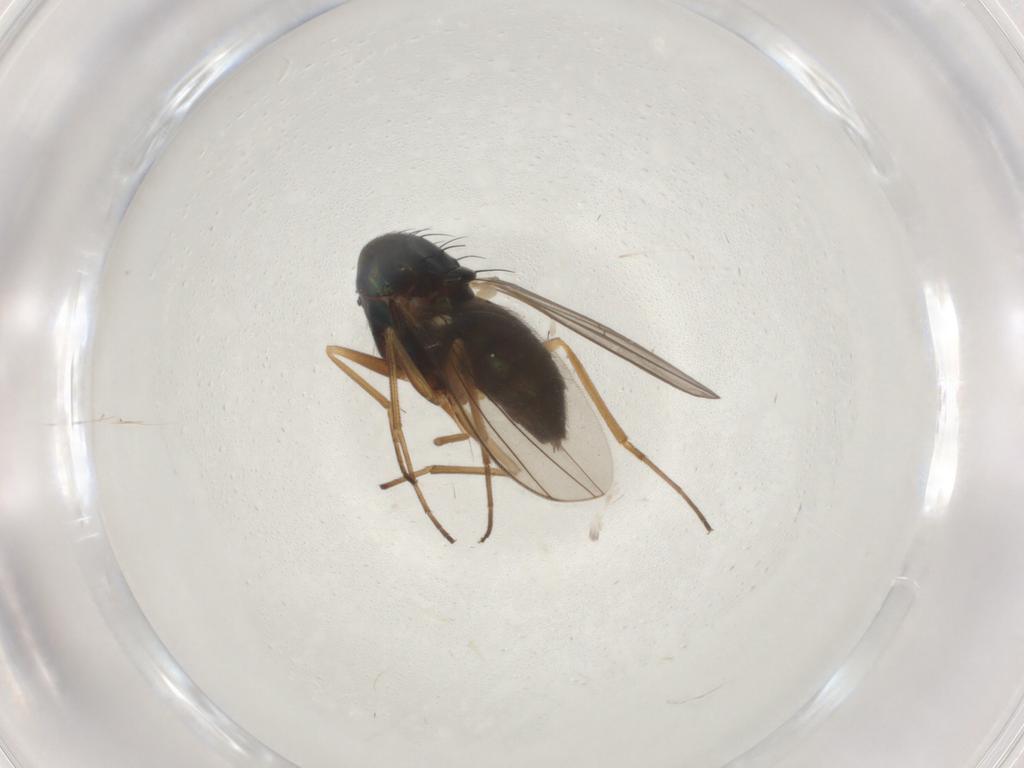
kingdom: Animalia
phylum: Arthropoda
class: Insecta
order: Diptera
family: Dolichopodidae
